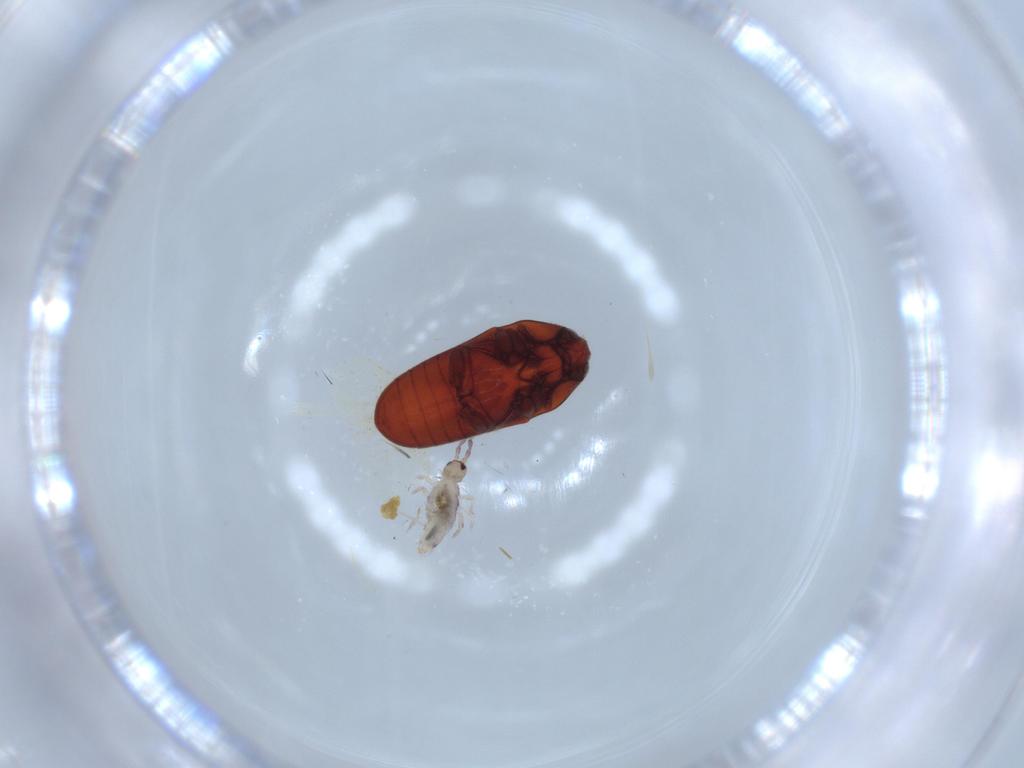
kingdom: Animalia
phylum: Arthropoda
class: Insecta
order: Coleoptera
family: Throscidae
